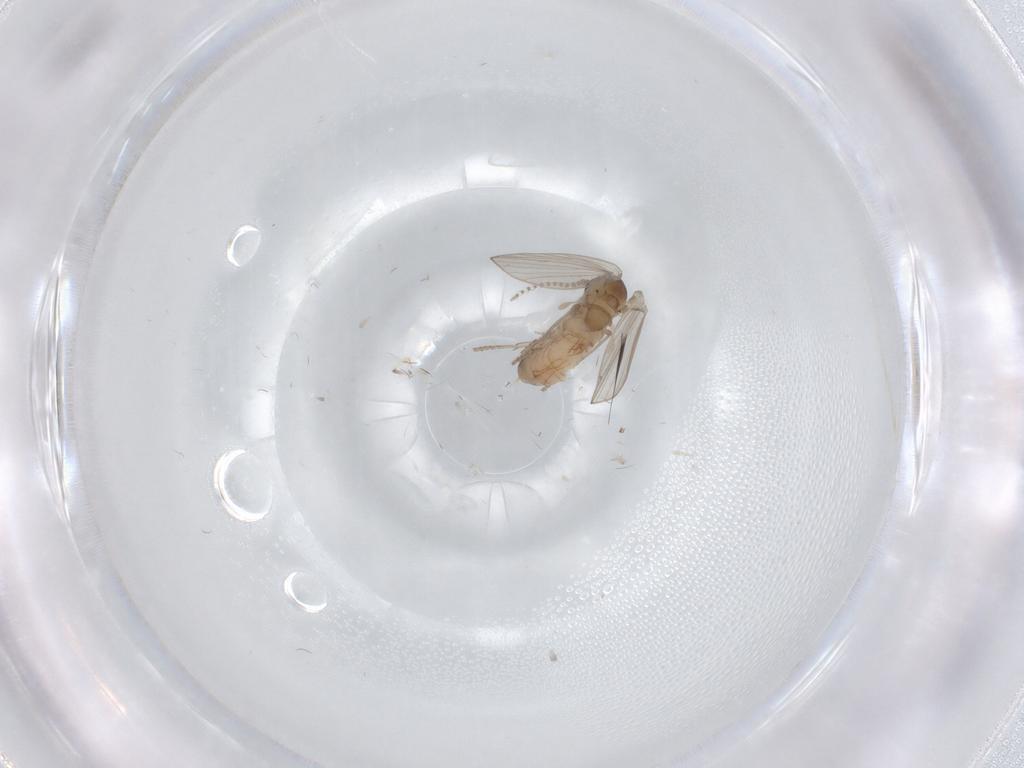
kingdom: Animalia
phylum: Arthropoda
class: Insecta
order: Diptera
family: Psychodidae
